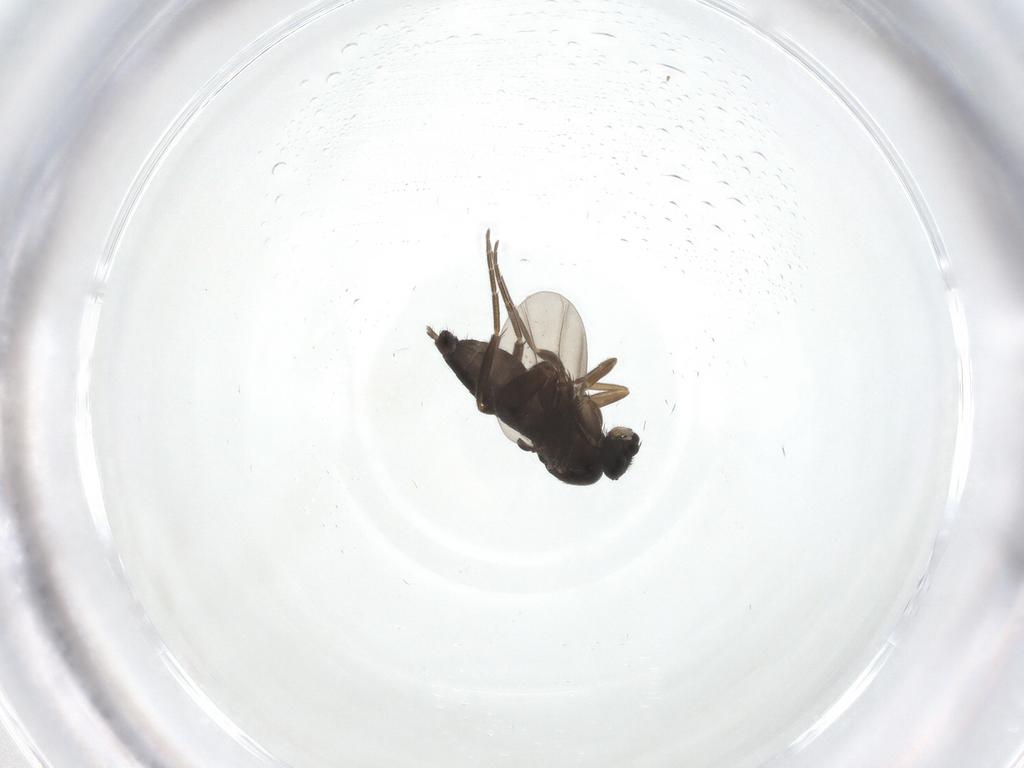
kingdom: Animalia
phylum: Arthropoda
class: Insecta
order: Diptera
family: Phoridae
